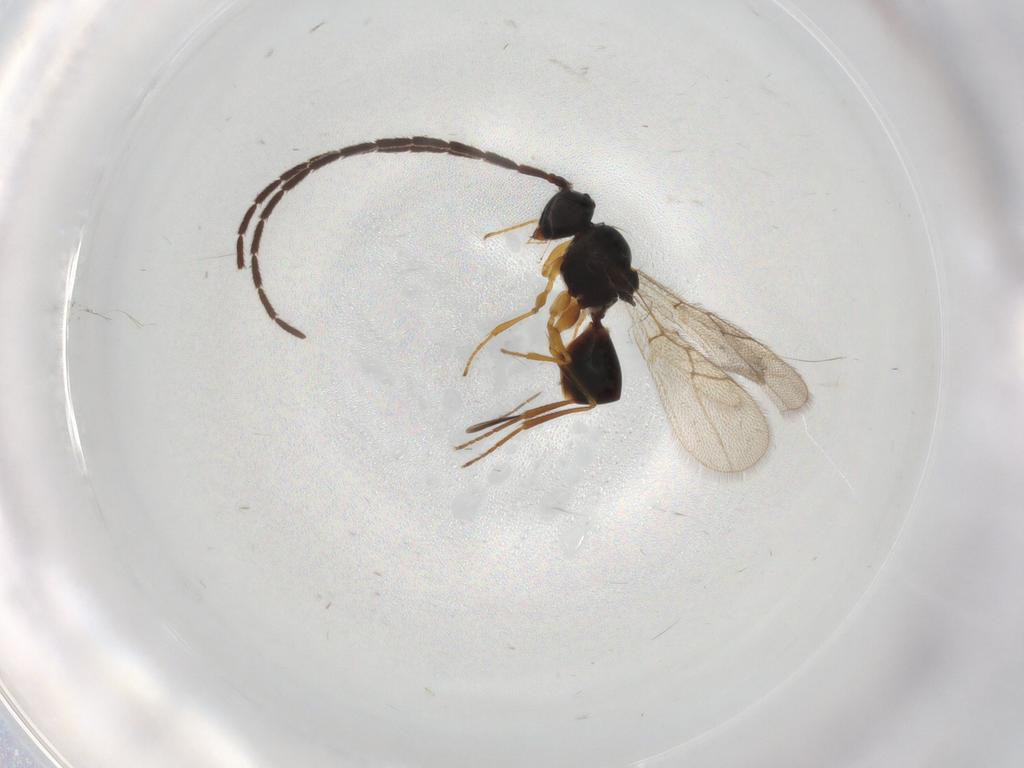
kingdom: Animalia
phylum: Arthropoda
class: Insecta
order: Hymenoptera
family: Figitidae
